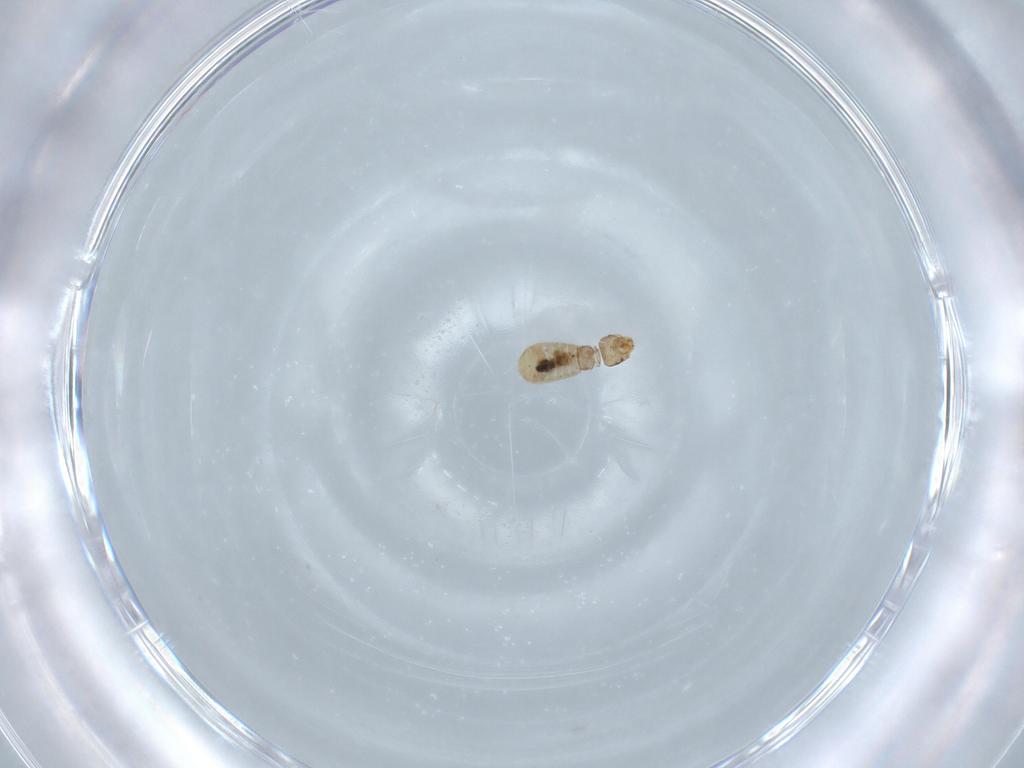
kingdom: Animalia
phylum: Arthropoda
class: Insecta
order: Psocodea
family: Liposcelididae
